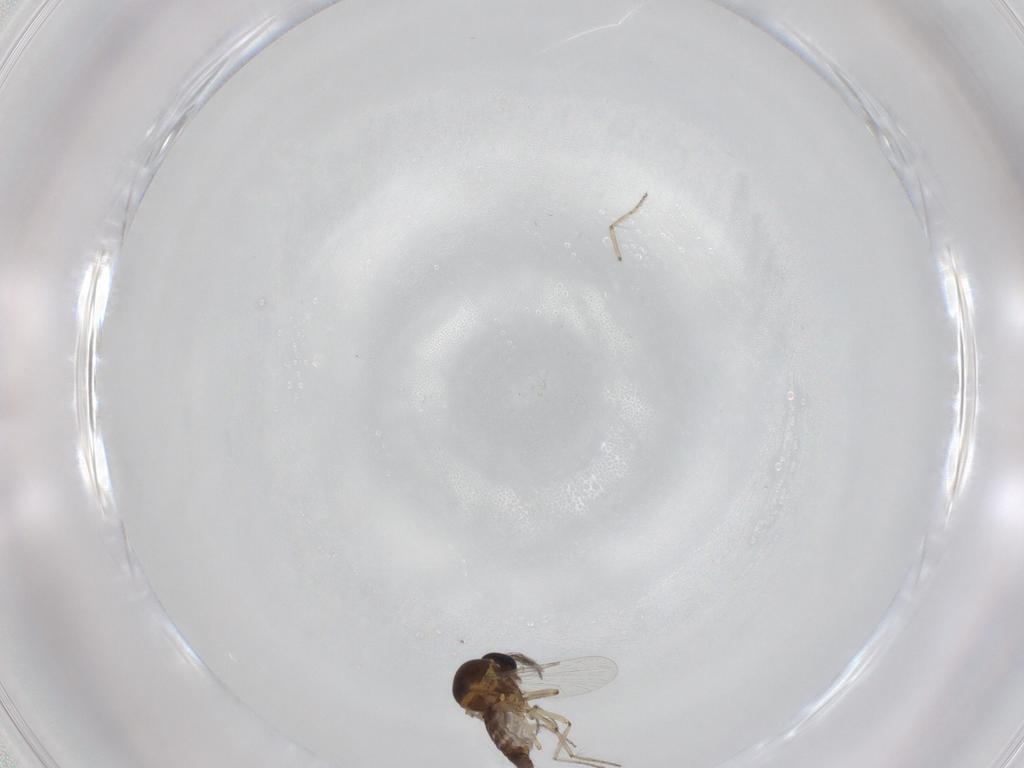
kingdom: Animalia
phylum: Arthropoda
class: Insecta
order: Diptera
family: Ceratopogonidae
